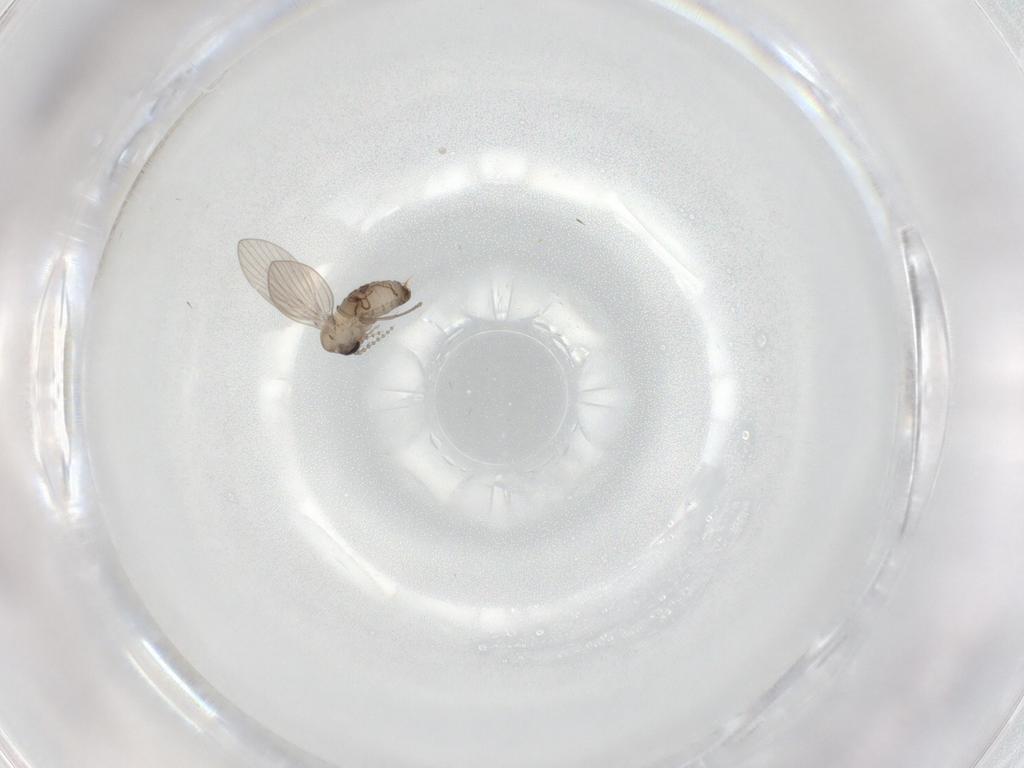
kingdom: Animalia
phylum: Arthropoda
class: Insecta
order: Diptera
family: Psychodidae
